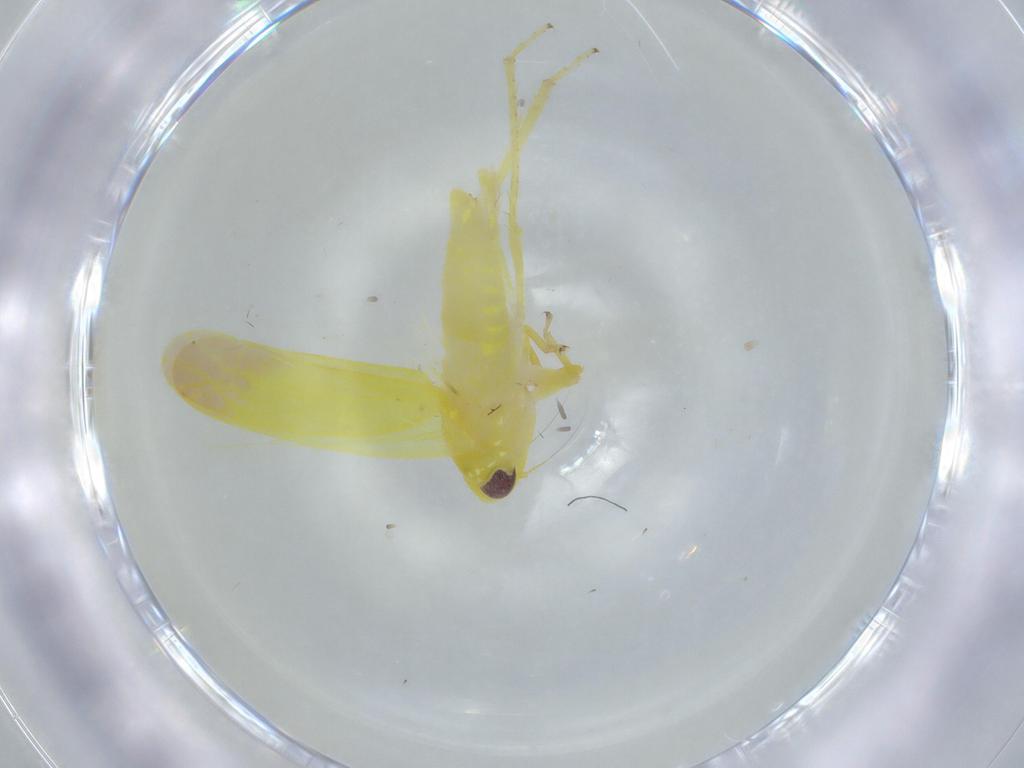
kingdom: Animalia
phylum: Arthropoda
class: Insecta
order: Hemiptera
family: Cicadellidae
